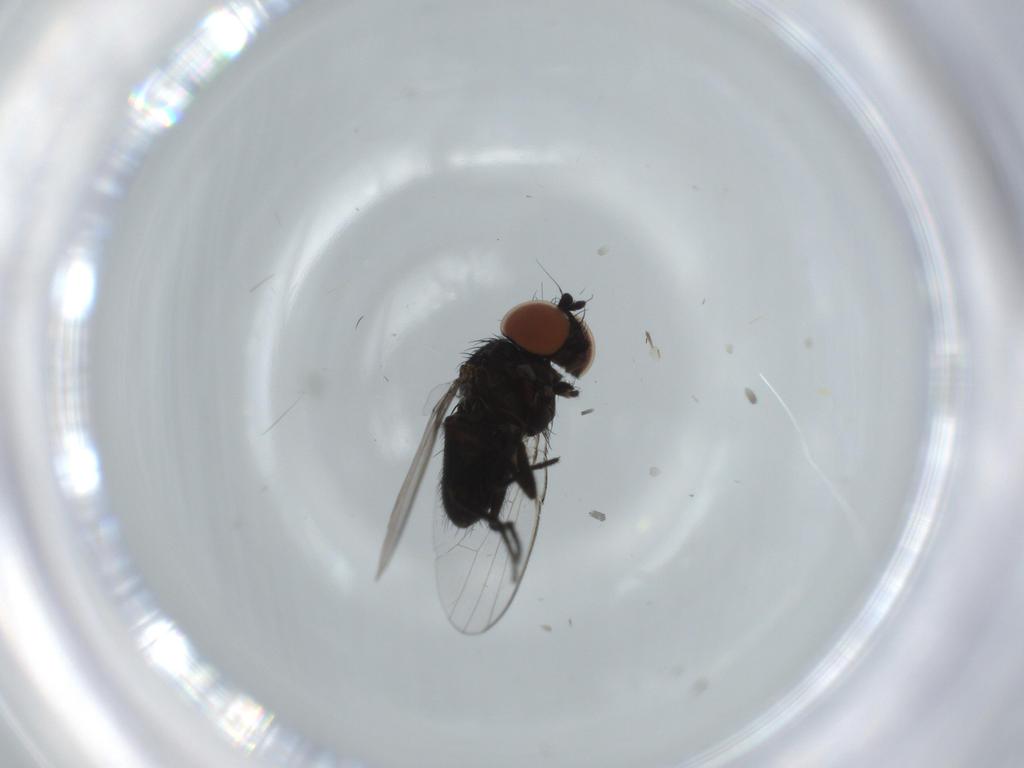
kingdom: Animalia
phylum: Arthropoda
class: Insecta
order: Diptera
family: Milichiidae
